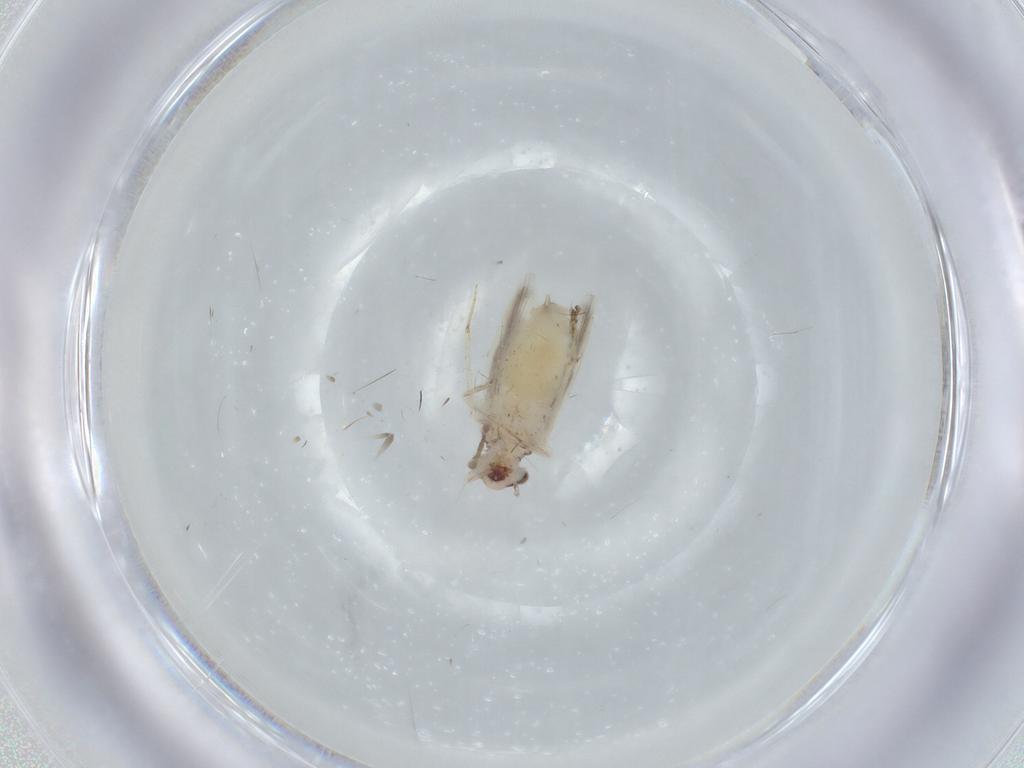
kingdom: Animalia
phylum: Arthropoda
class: Insecta
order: Psocodea
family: Lepidopsocidae
